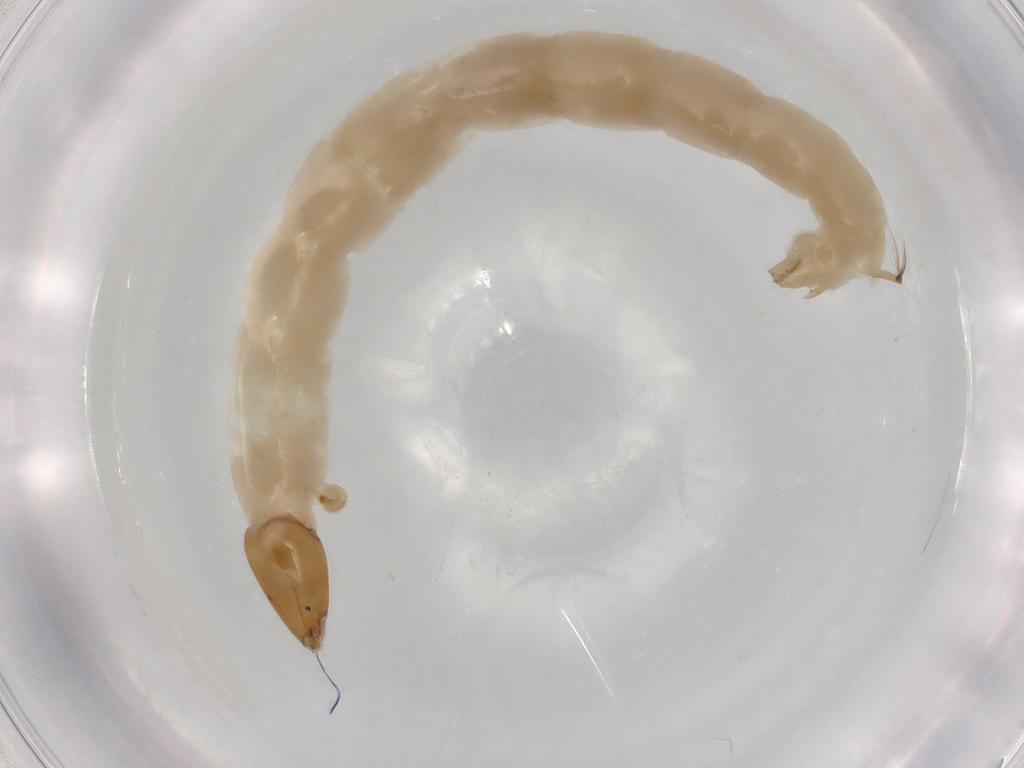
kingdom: Animalia
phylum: Arthropoda
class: Insecta
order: Diptera
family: Chironomidae
